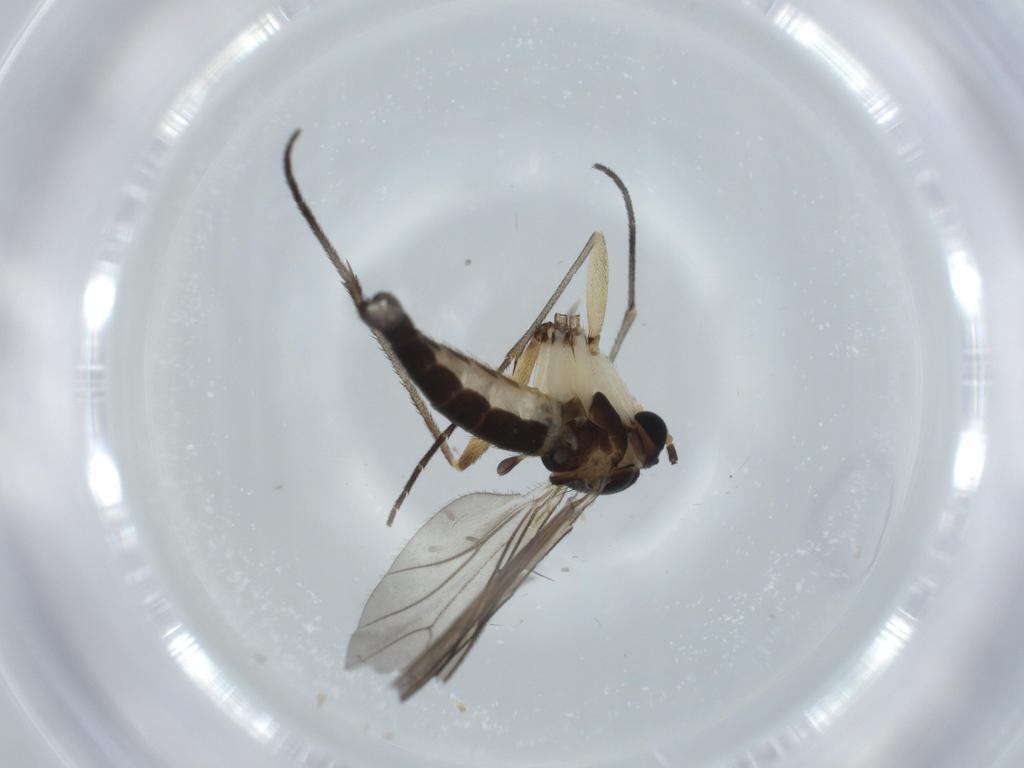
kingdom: Animalia
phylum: Arthropoda
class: Insecta
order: Diptera
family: Sciaridae
